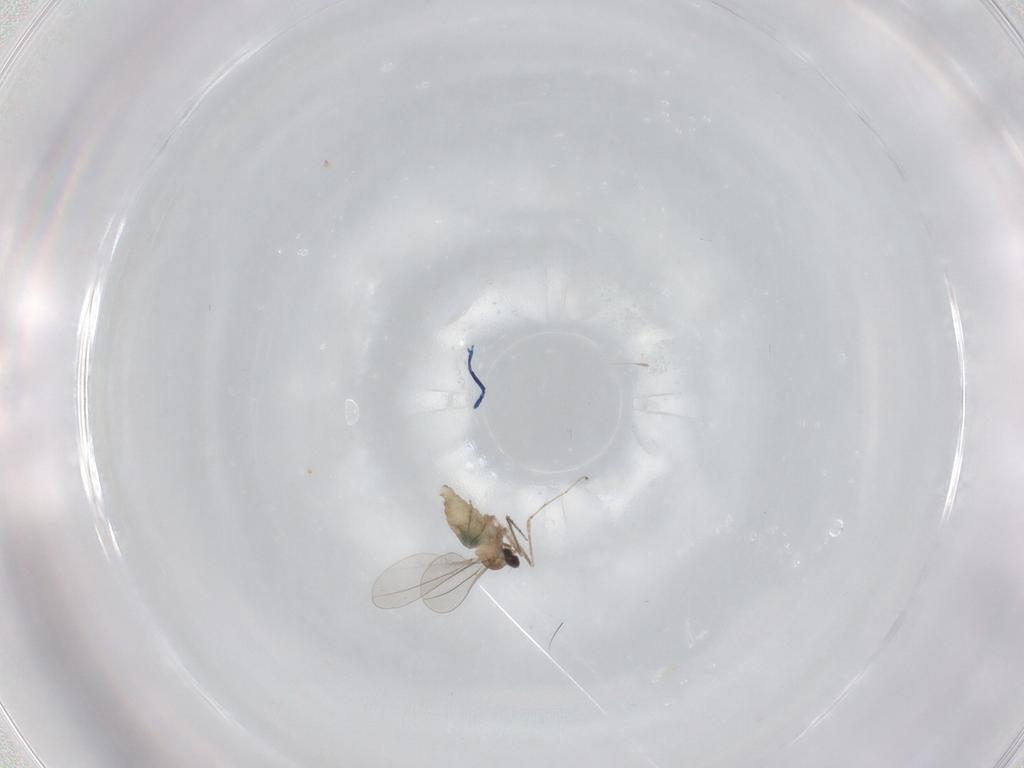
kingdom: Animalia
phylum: Arthropoda
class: Insecta
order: Diptera
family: Cecidomyiidae
